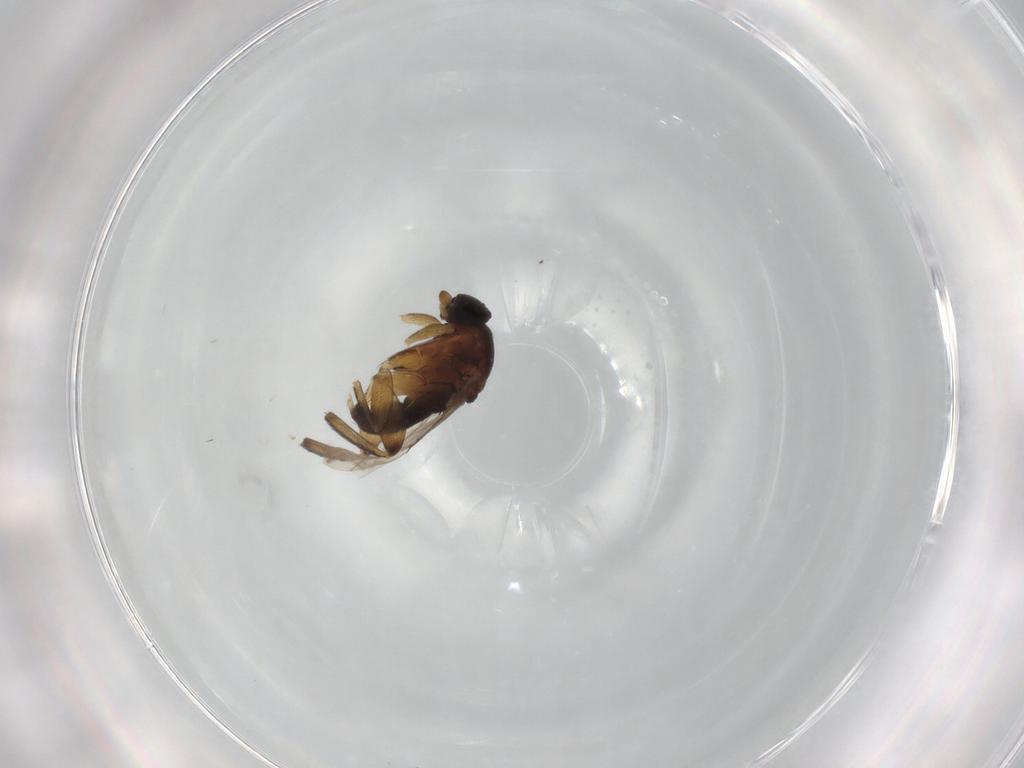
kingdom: Animalia
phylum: Arthropoda
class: Insecta
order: Diptera
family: Phoridae
